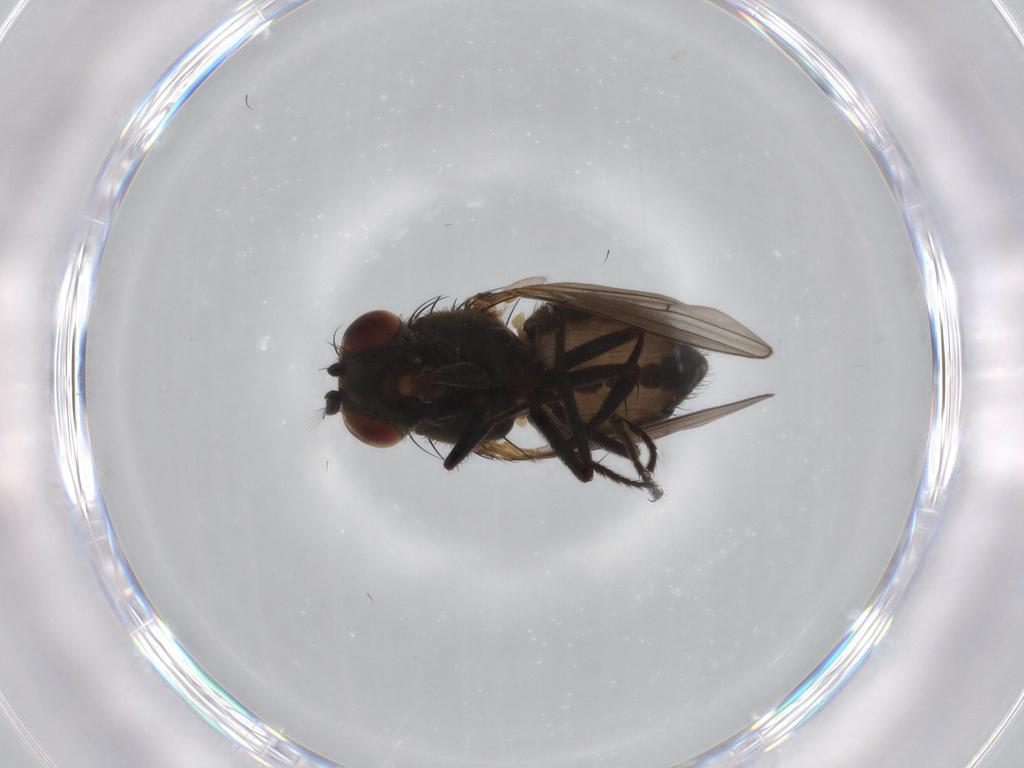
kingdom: Animalia
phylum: Arthropoda
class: Insecta
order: Diptera
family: Ephydridae
